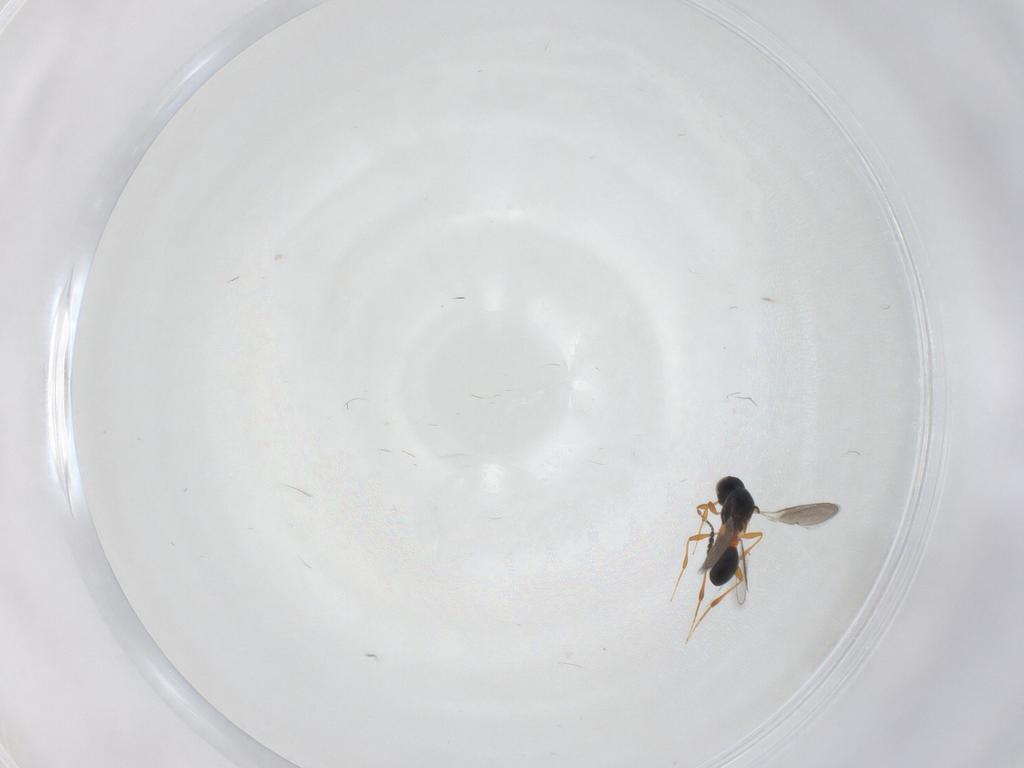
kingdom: Animalia
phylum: Arthropoda
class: Insecta
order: Hymenoptera
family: Platygastridae
